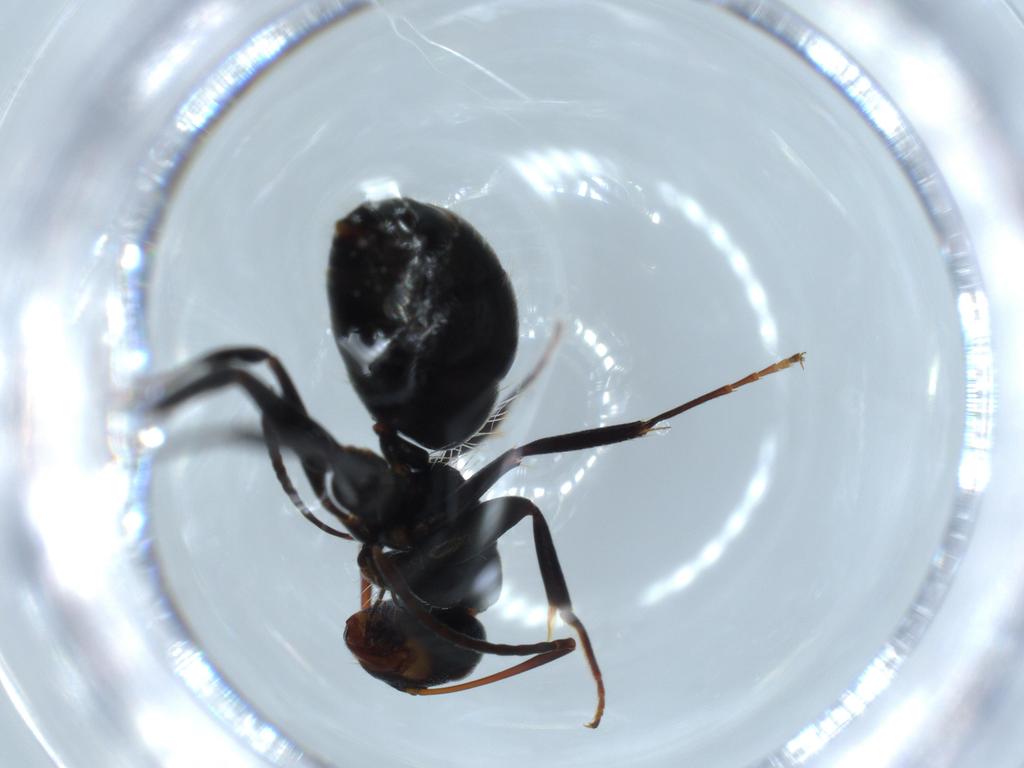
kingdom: Animalia
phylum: Arthropoda
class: Insecta
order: Hymenoptera
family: Formicidae
